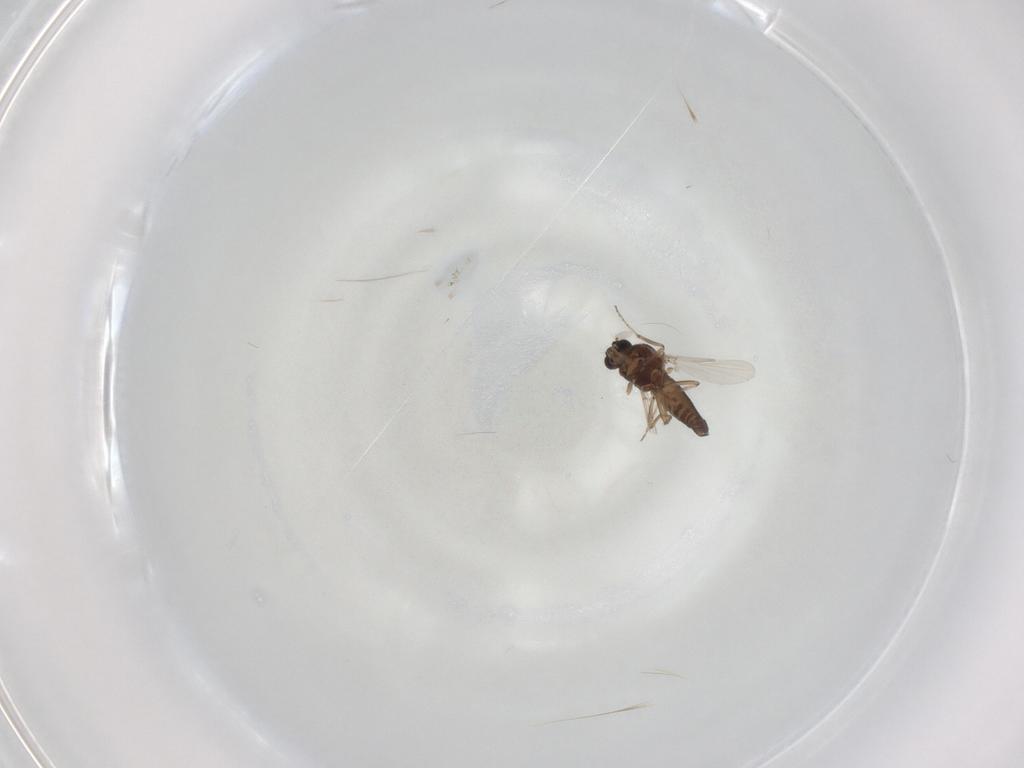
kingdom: Animalia
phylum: Arthropoda
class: Insecta
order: Diptera
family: Ceratopogonidae
